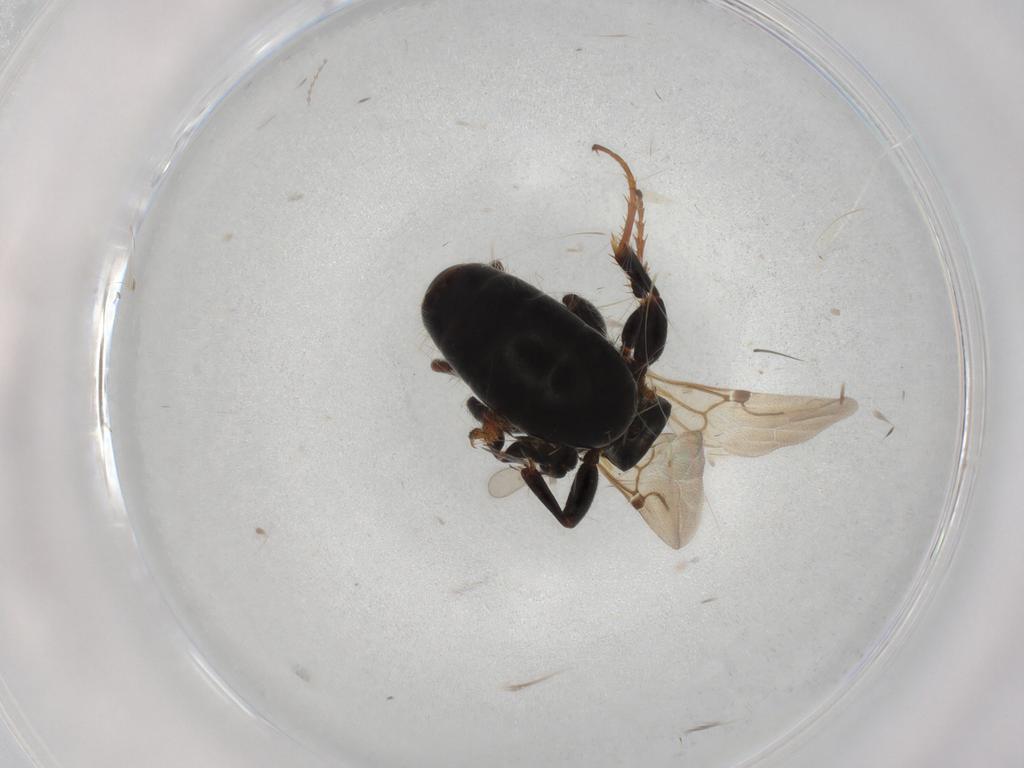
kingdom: Animalia
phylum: Arthropoda
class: Insecta
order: Hymenoptera
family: Bethylidae
